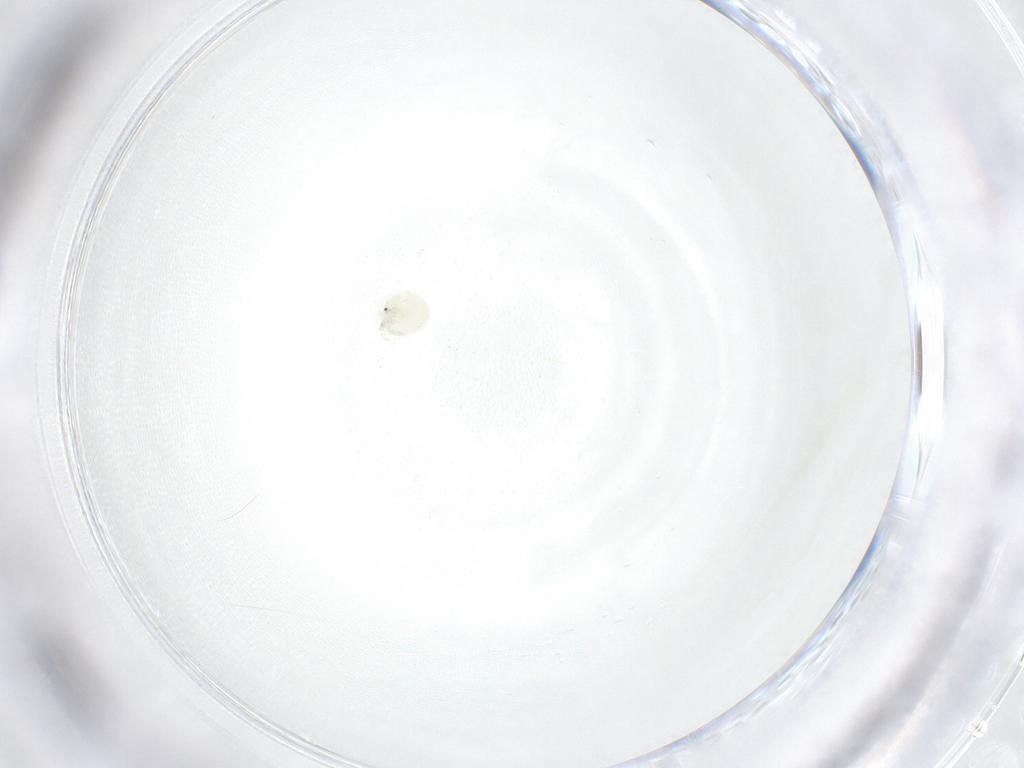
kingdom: Animalia
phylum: Arthropoda
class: Arachnida
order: Trombidiformes
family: Arrenuridae
